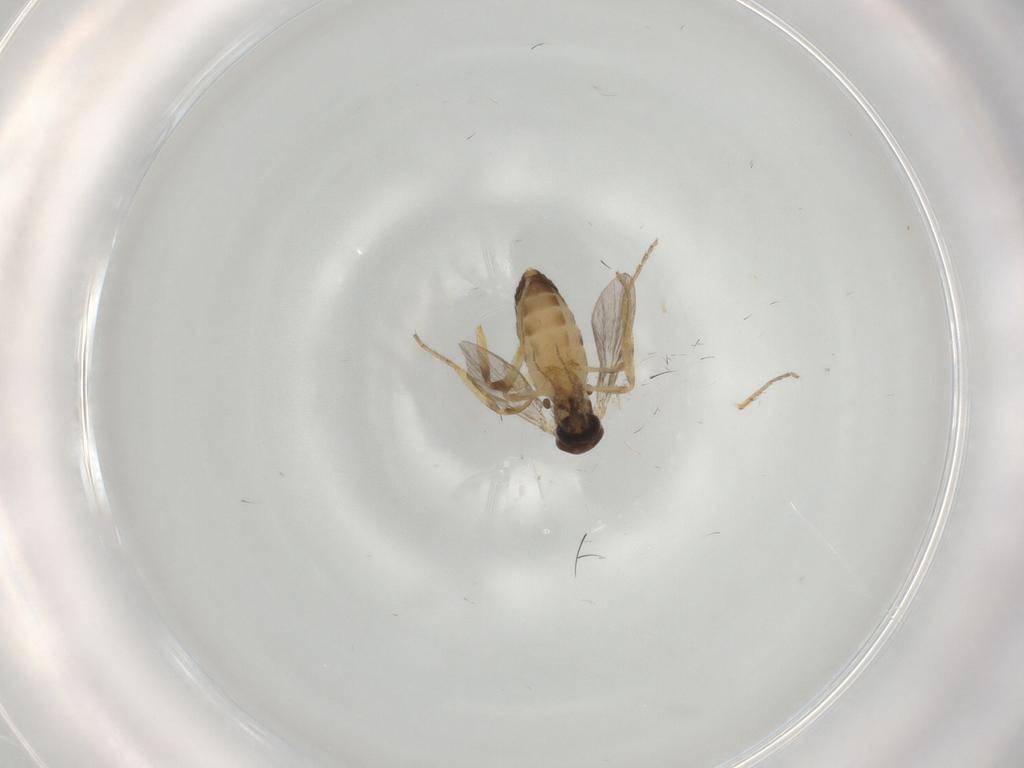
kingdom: Animalia
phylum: Arthropoda
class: Insecta
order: Diptera
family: Ceratopogonidae
